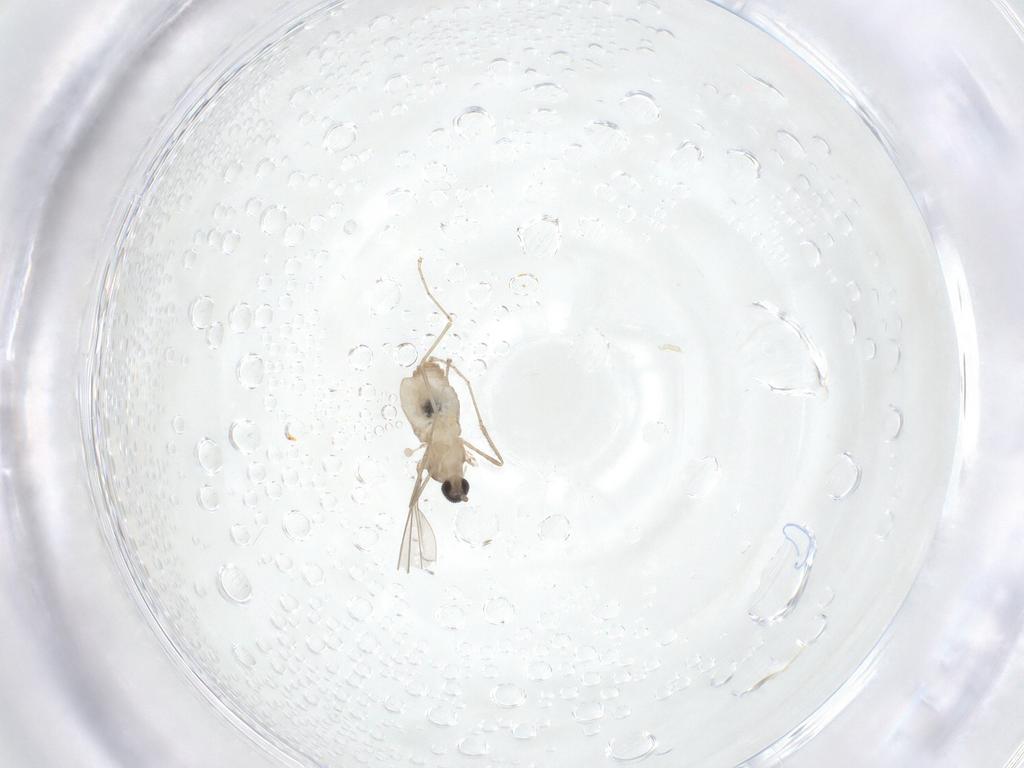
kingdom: Animalia
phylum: Arthropoda
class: Insecta
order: Diptera
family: Cecidomyiidae
